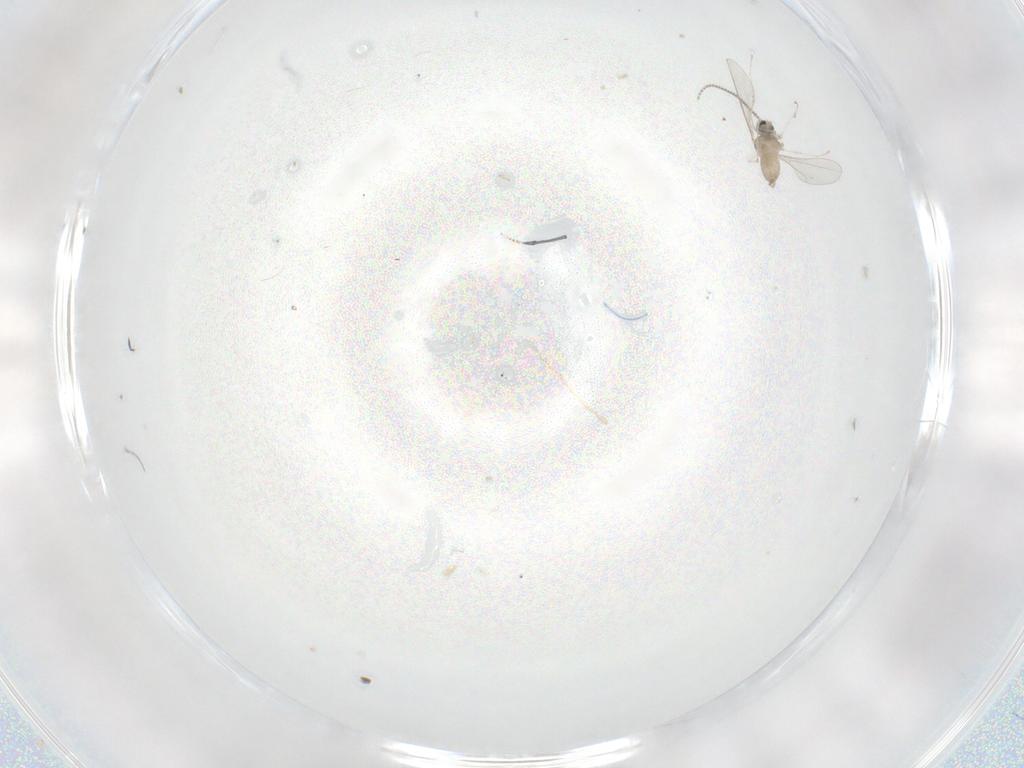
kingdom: Animalia
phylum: Arthropoda
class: Insecta
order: Diptera
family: Cecidomyiidae
